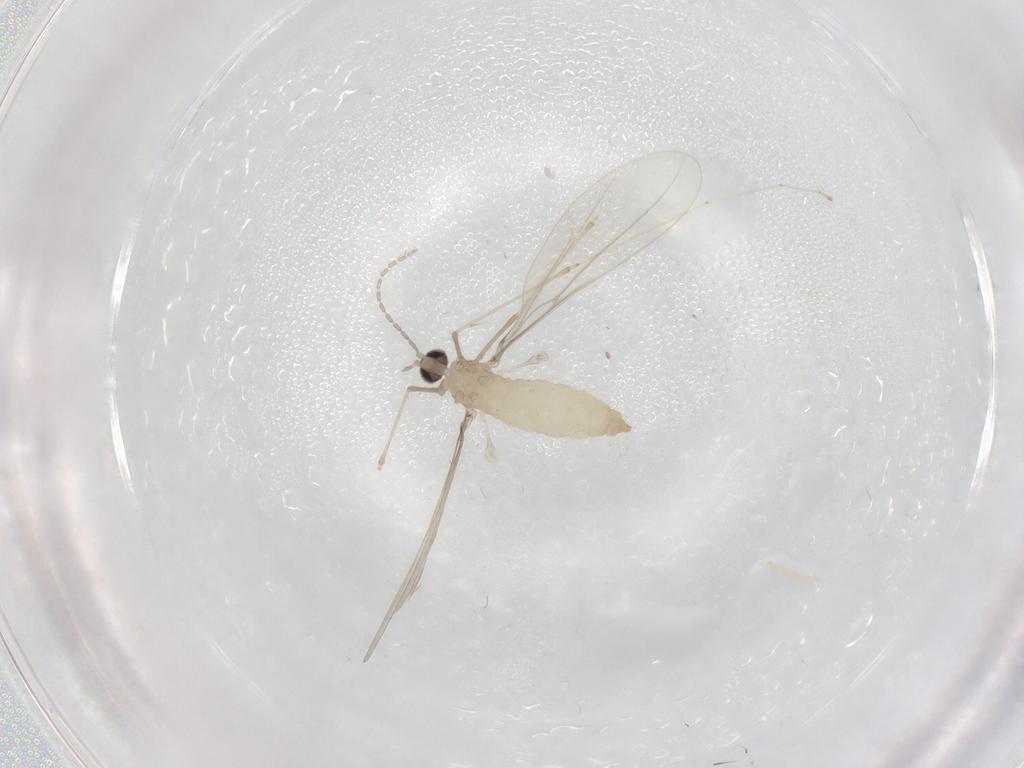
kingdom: Animalia
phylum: Arthropoda
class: Insecta
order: Diptera
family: Cecidomyiidae
